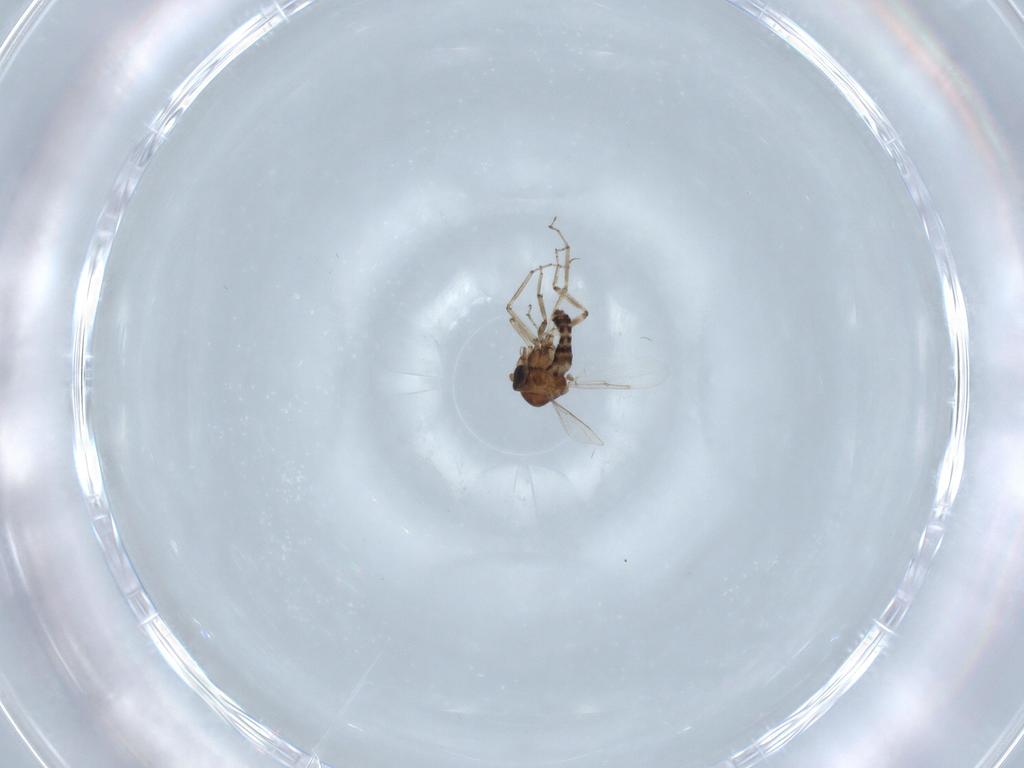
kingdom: Animalia
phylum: Arthropoda
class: Insecta
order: Diptera
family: Ceratopogonidae
